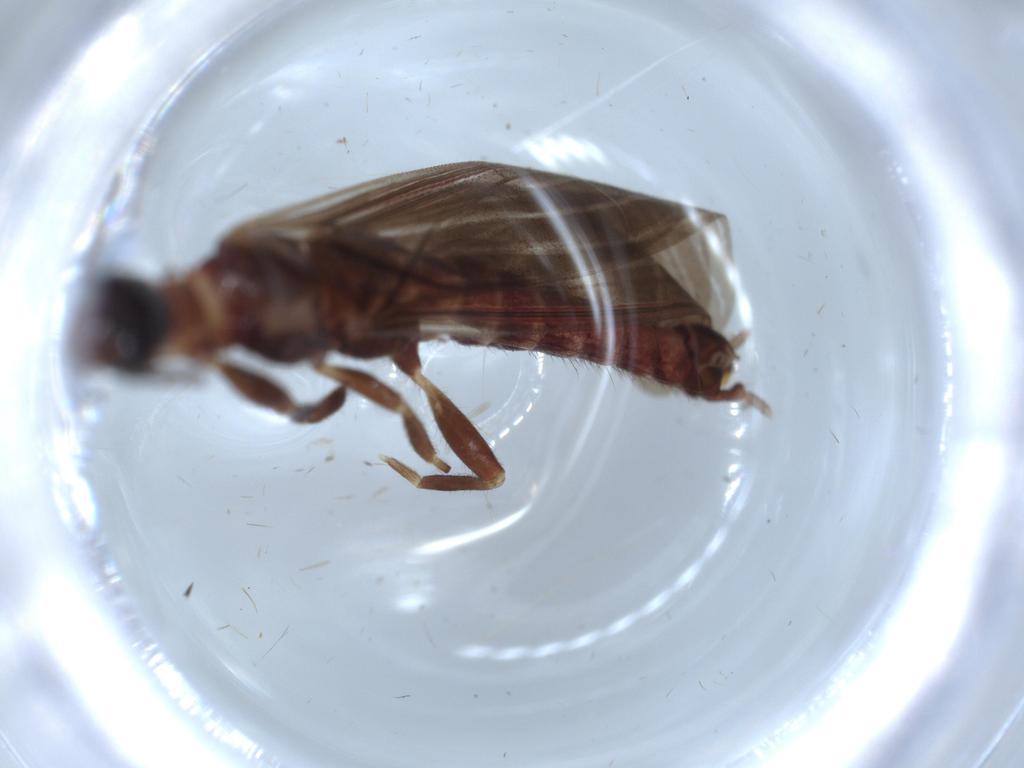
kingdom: Animalia
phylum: Arthropoda
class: Insecta
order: Embioptera
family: Anisembiidae
